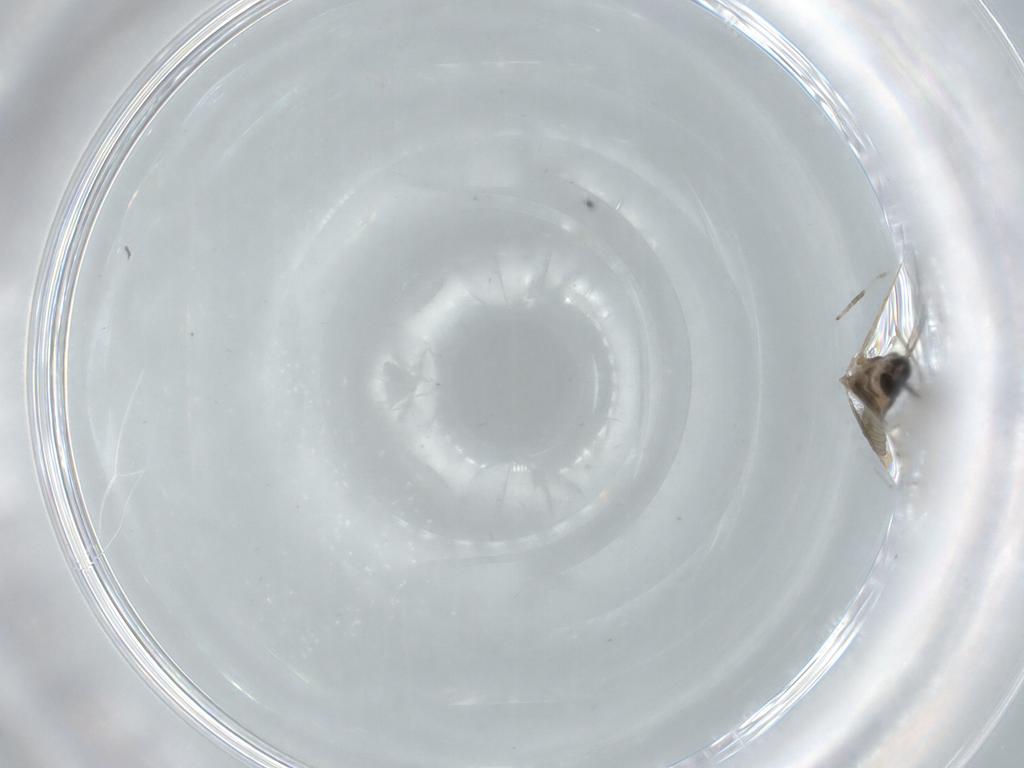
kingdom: Animalia
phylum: Arthropoda
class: Insecta
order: Diptera
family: Cecidomyiidae
